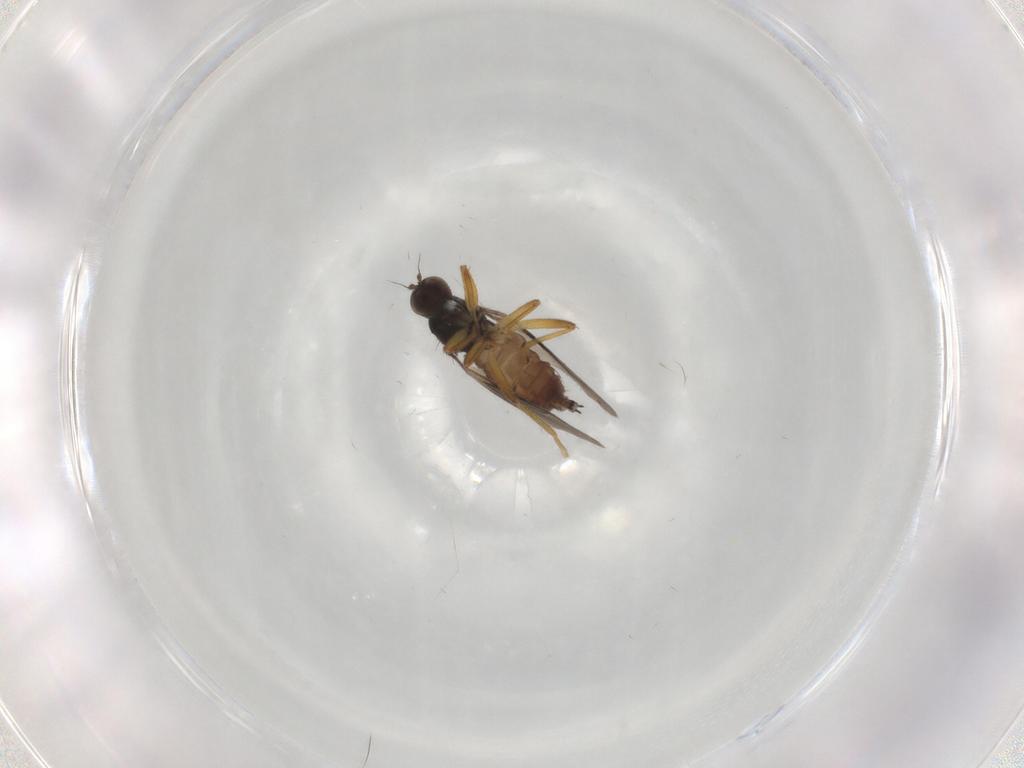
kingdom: Animalia
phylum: Arthropoda
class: Insecta
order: Diptera
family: Hybotidae
